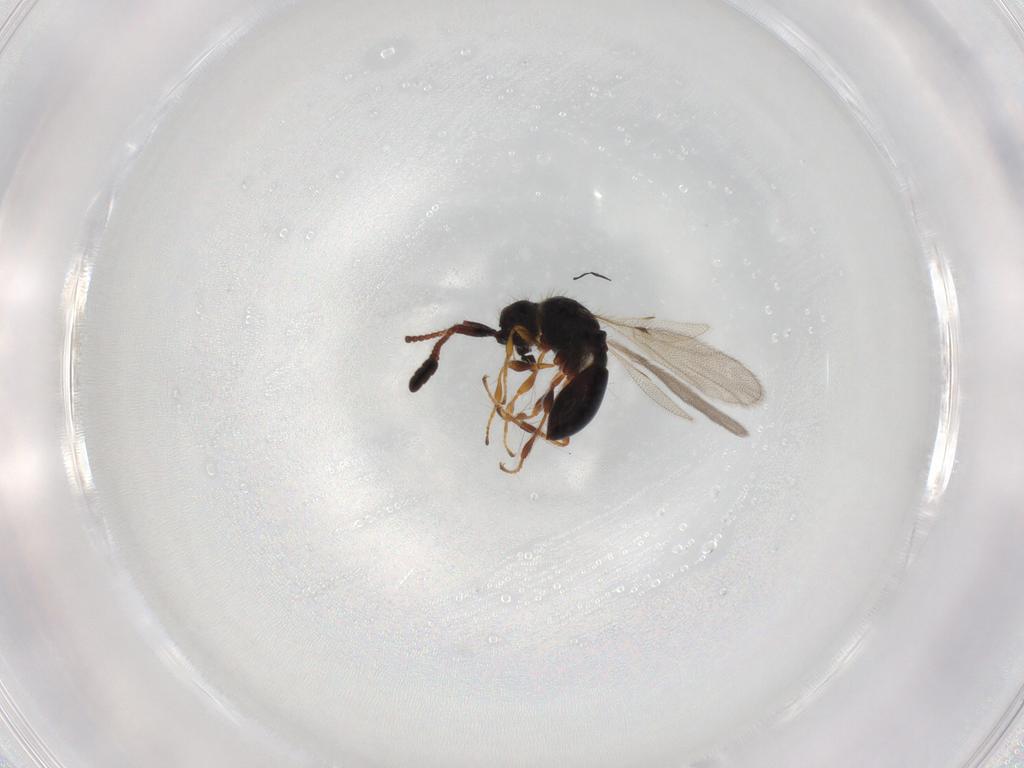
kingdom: Animalia
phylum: Arthropoda
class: Insecta
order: Hymenoptera
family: Diapriidae
